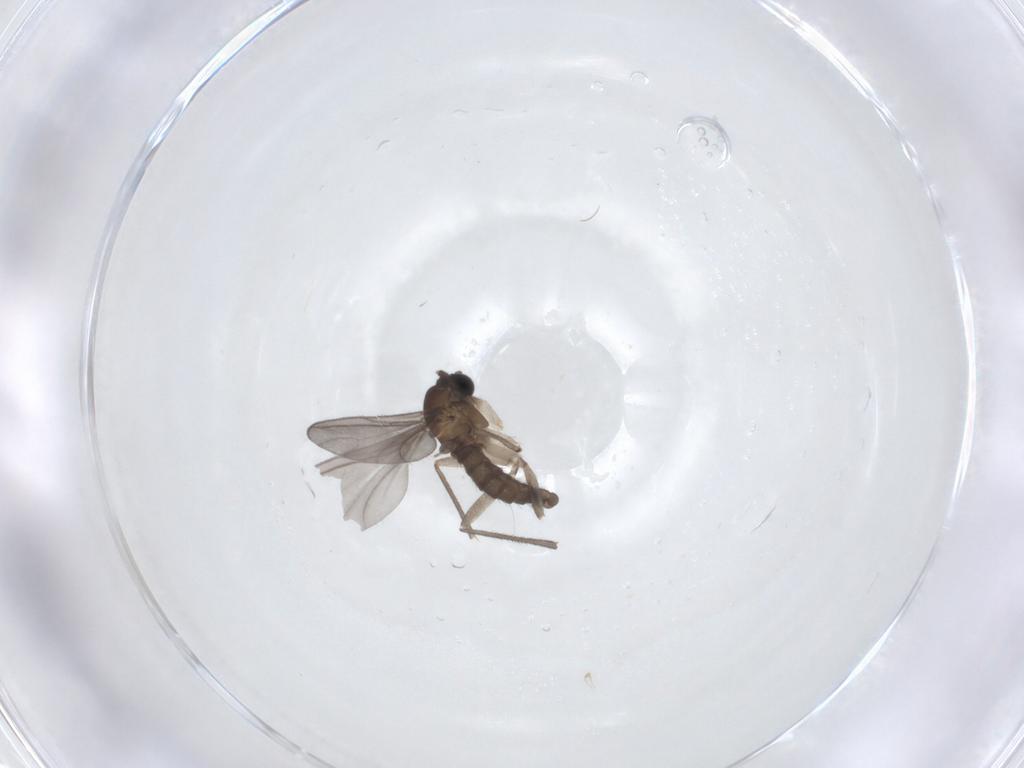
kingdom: Animalia
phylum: Arthropoda
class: Insecta
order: Diptera
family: Sciaridae
